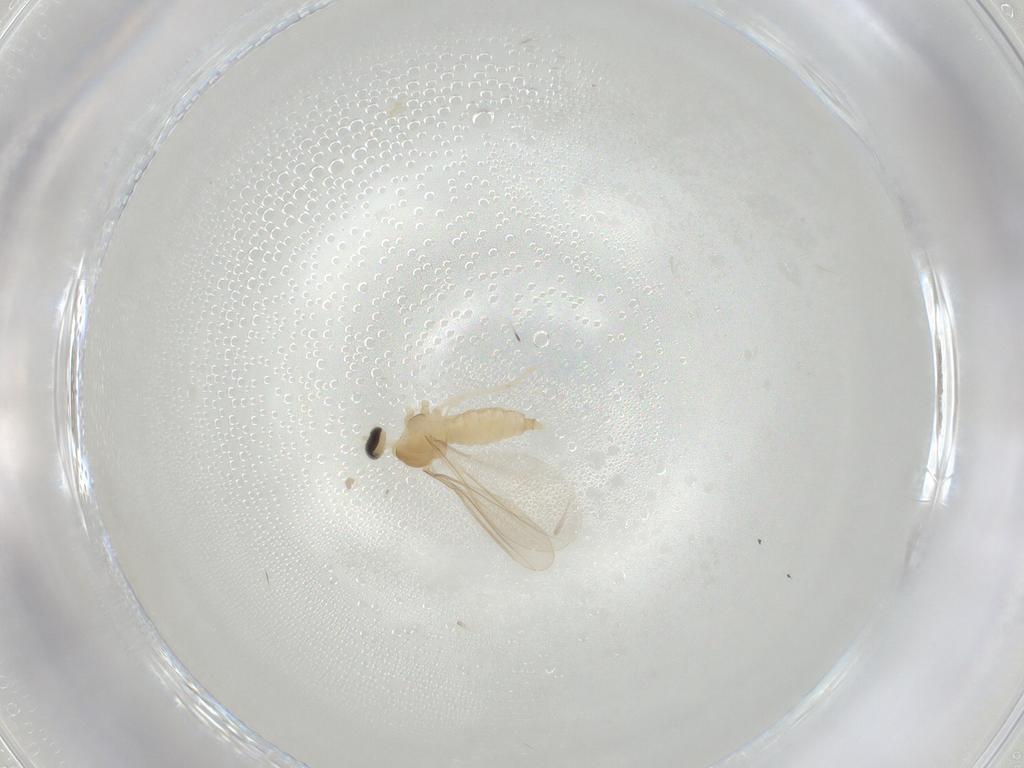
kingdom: Animalia
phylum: Arthropoda
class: Insecta
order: Diptera
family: Cecidomyiidae
